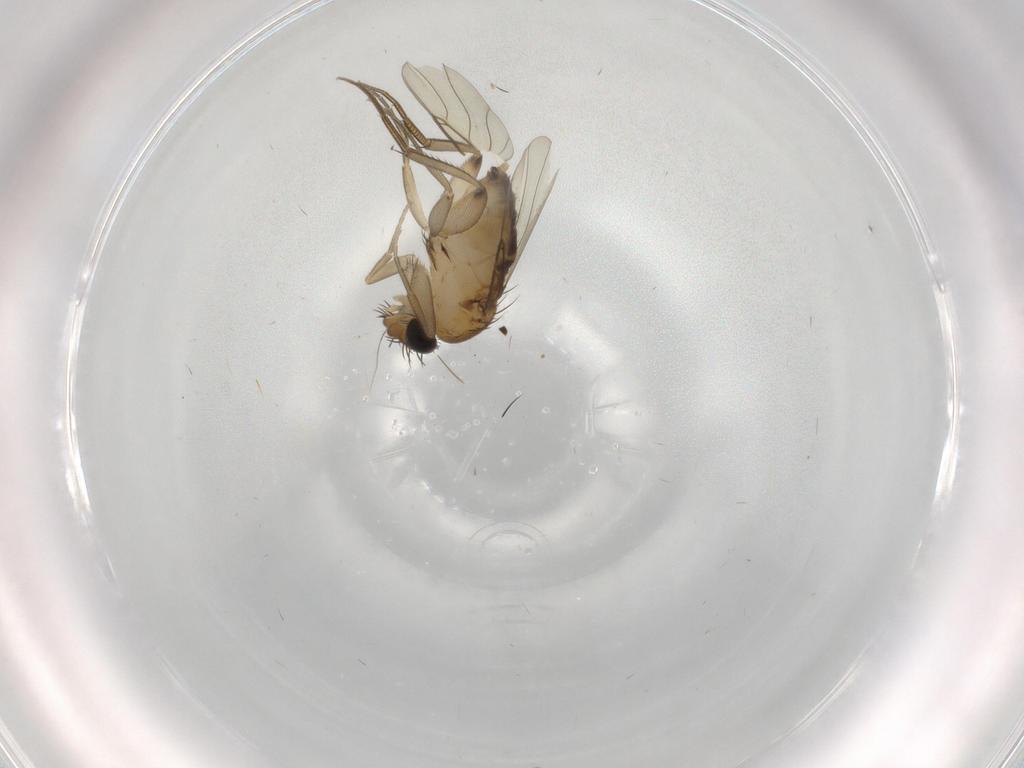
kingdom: Animalia
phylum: Arthropoda
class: Insecta
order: Diptera
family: Phoridae
